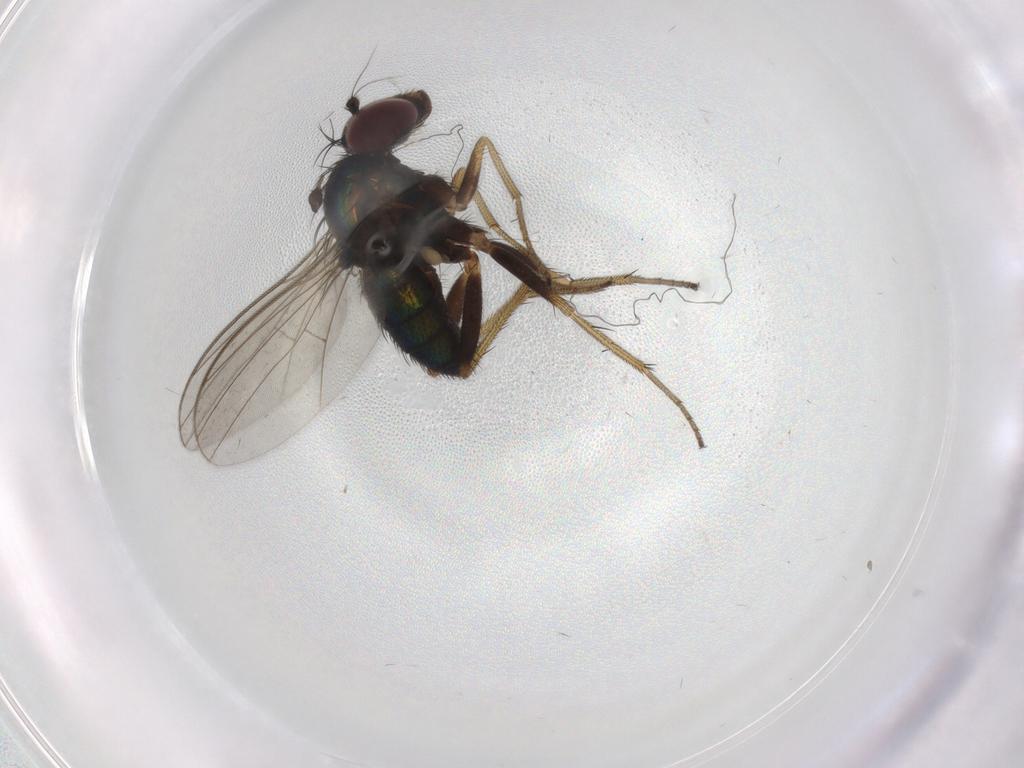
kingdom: Animalia
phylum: Arthropoda
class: Insecta
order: Diptera
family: Dolichopodidae
